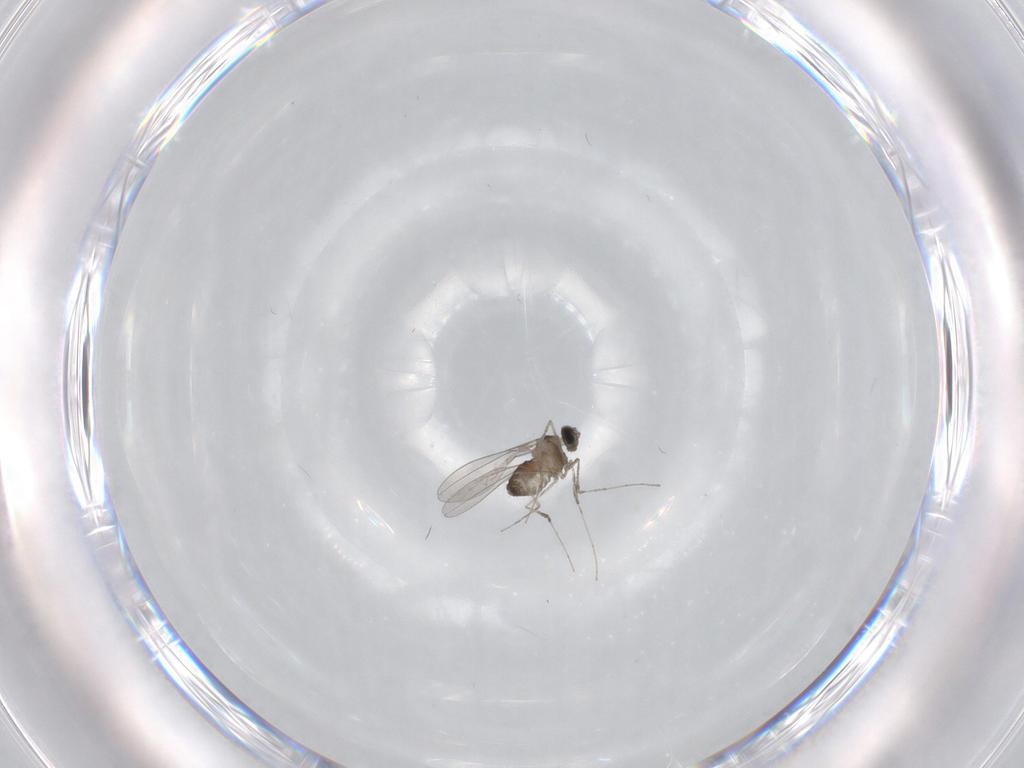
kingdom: Animalia
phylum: Arthropoda
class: Insecta
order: Diptera
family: Cecidomyiidae
